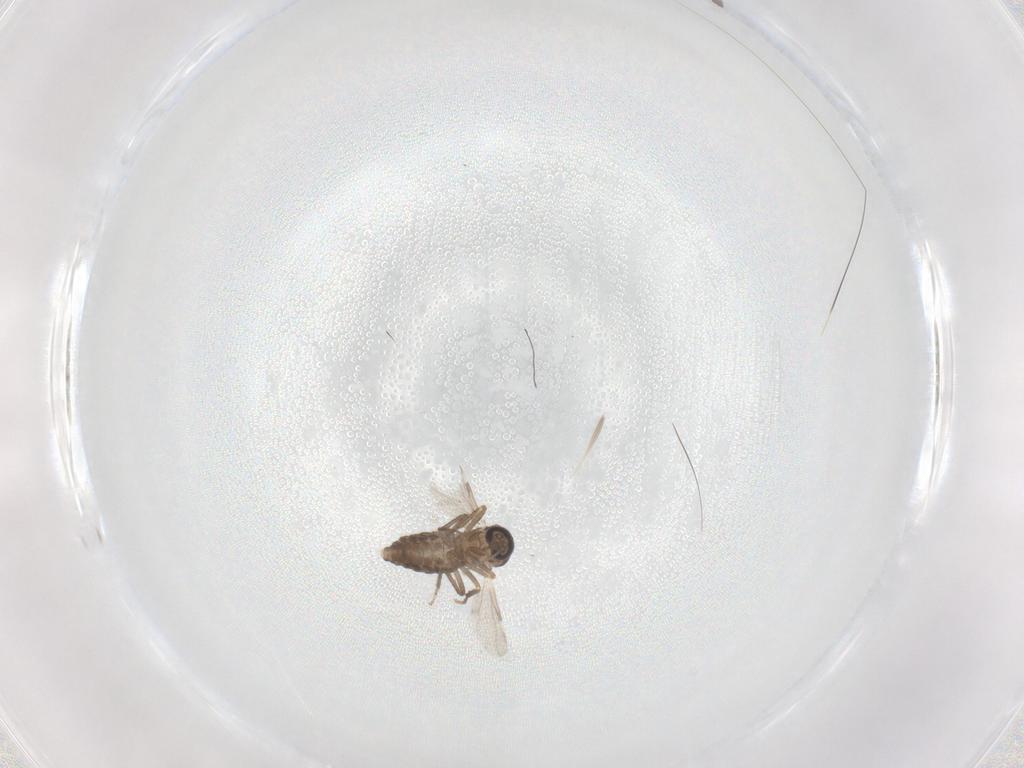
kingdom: Animalia
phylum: Arthropoda
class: Insecta
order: Diptera
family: Ceratopogonidae
